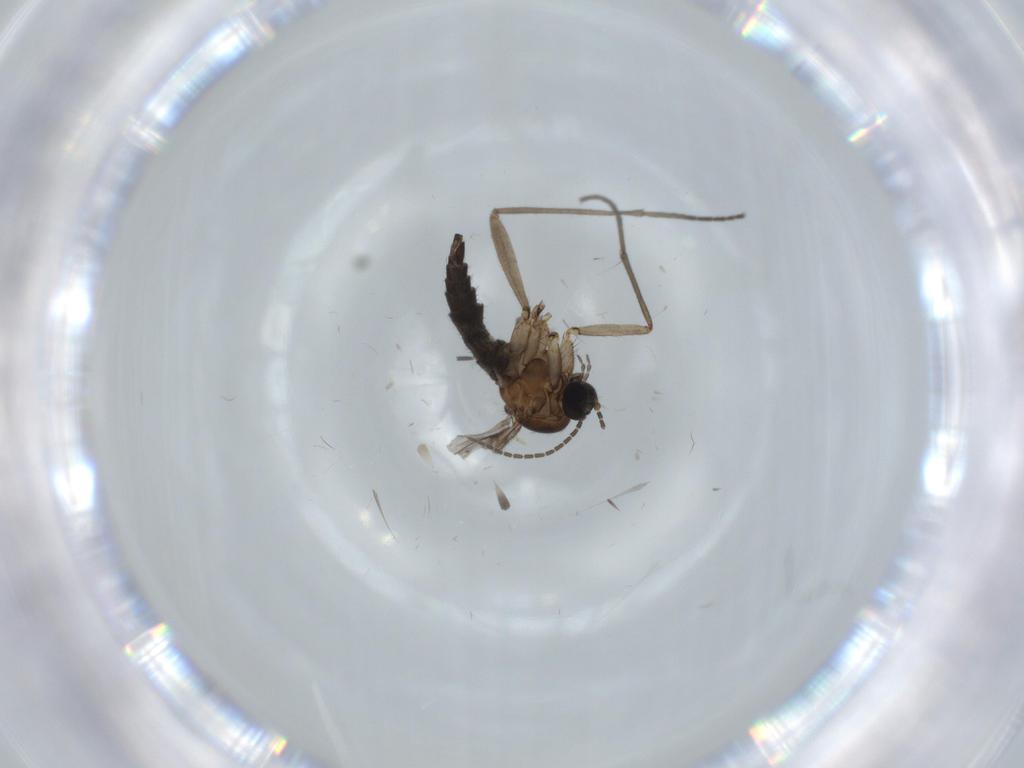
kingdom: Animalia
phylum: Arthropoda
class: Insecta
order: Diptera
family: Sciaridae
